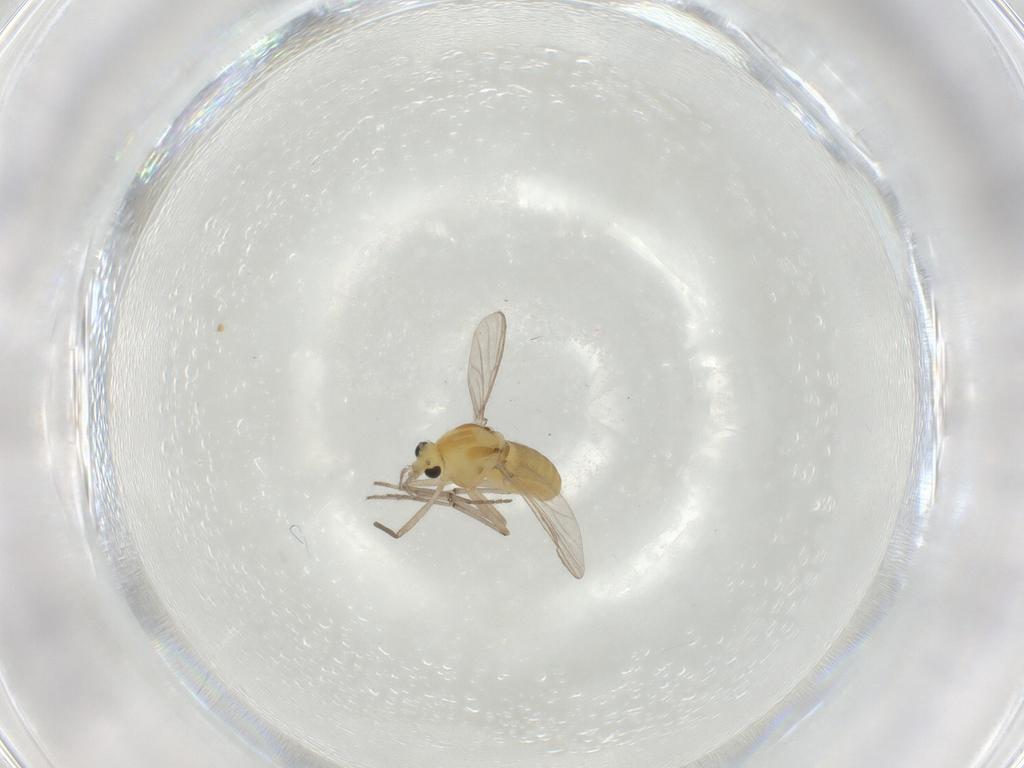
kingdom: Animalia
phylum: Arthropoda
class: Insecta
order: Diptera
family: Chironomidae
